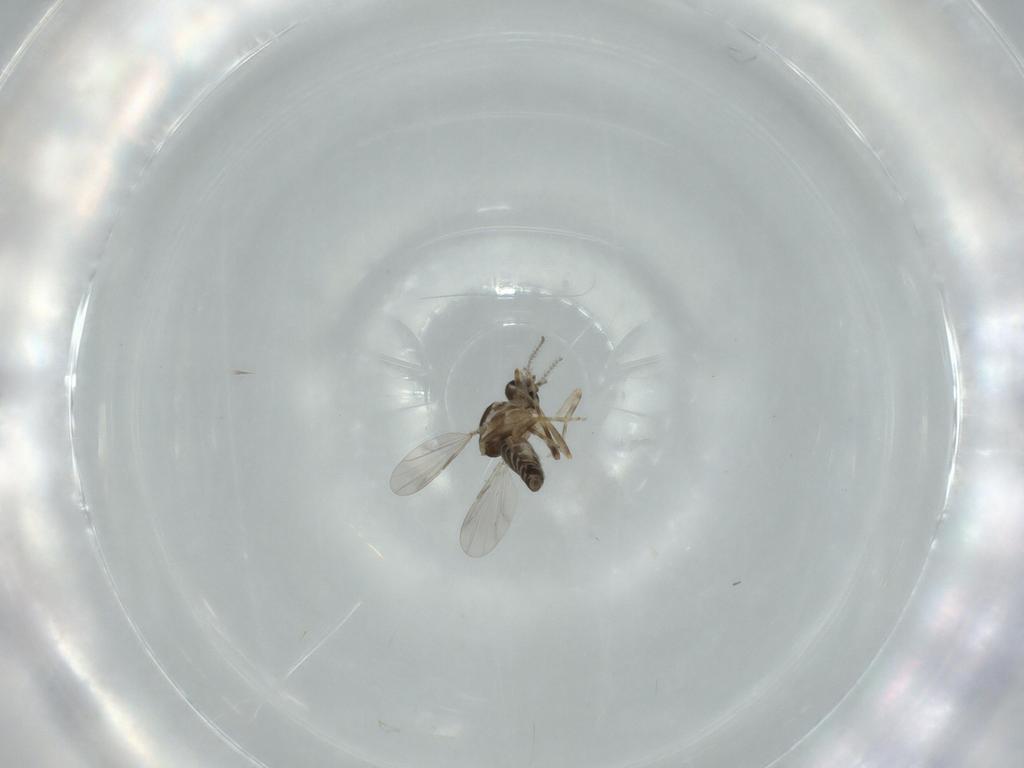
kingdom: Animalia
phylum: Arthropoda
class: Insecta
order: Diptera
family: Ceratopogonidae
